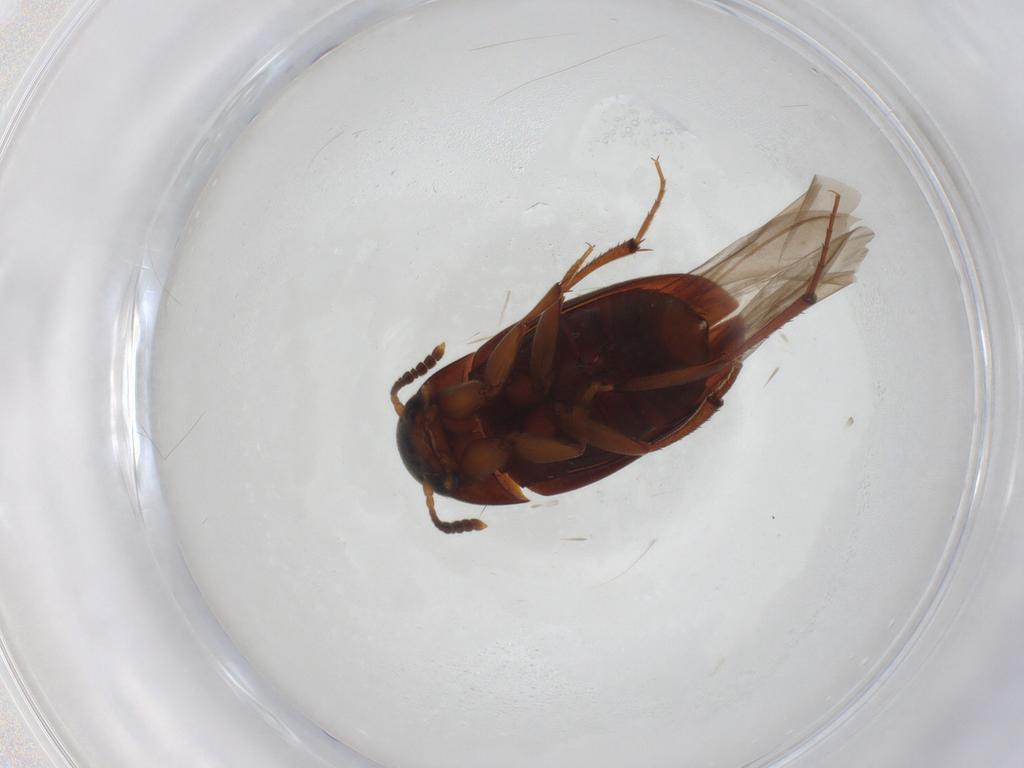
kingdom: Animalia
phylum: Arthropoda
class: Insecta
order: Coleoptera
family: Leiodidae
